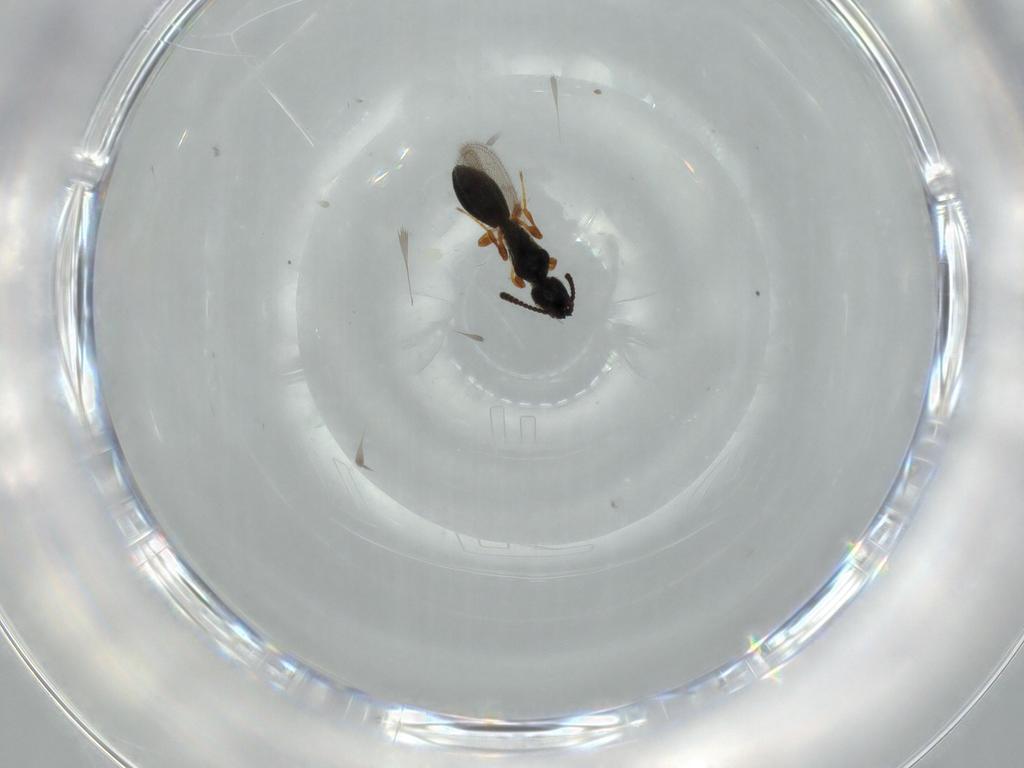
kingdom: Animalia
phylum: Arthropoda
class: Insecta
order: Hymenoptera
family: Diapriidae
